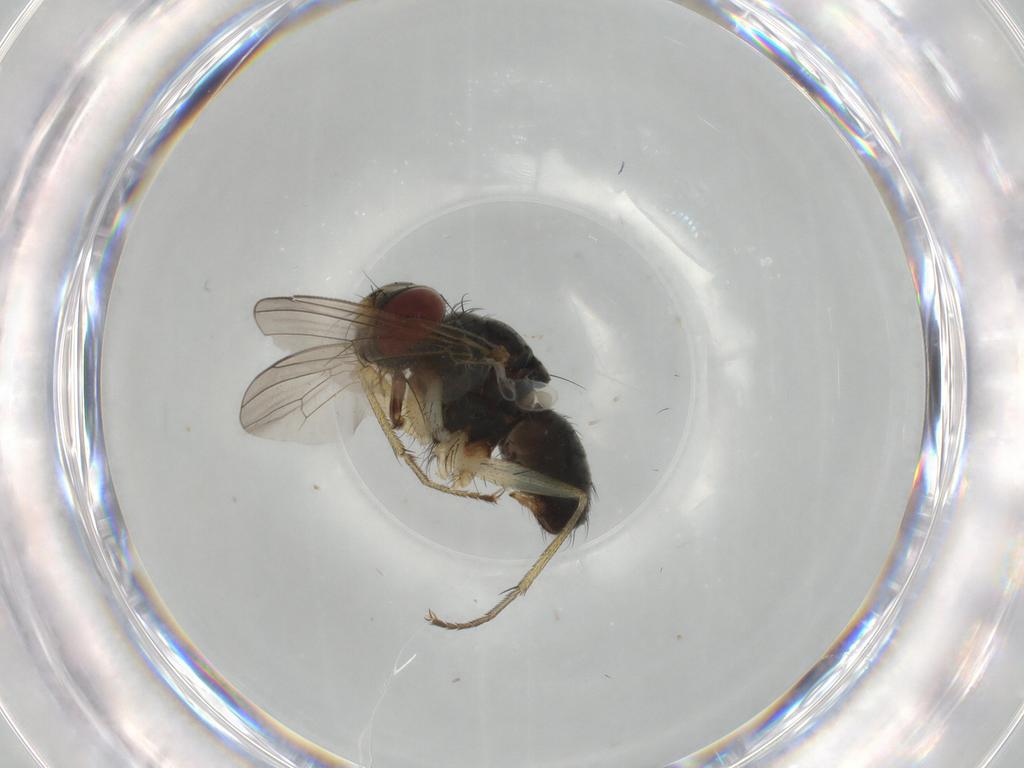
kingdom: Animalia
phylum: Arthropoda
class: Insecta
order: Diptera
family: Sciaridae
